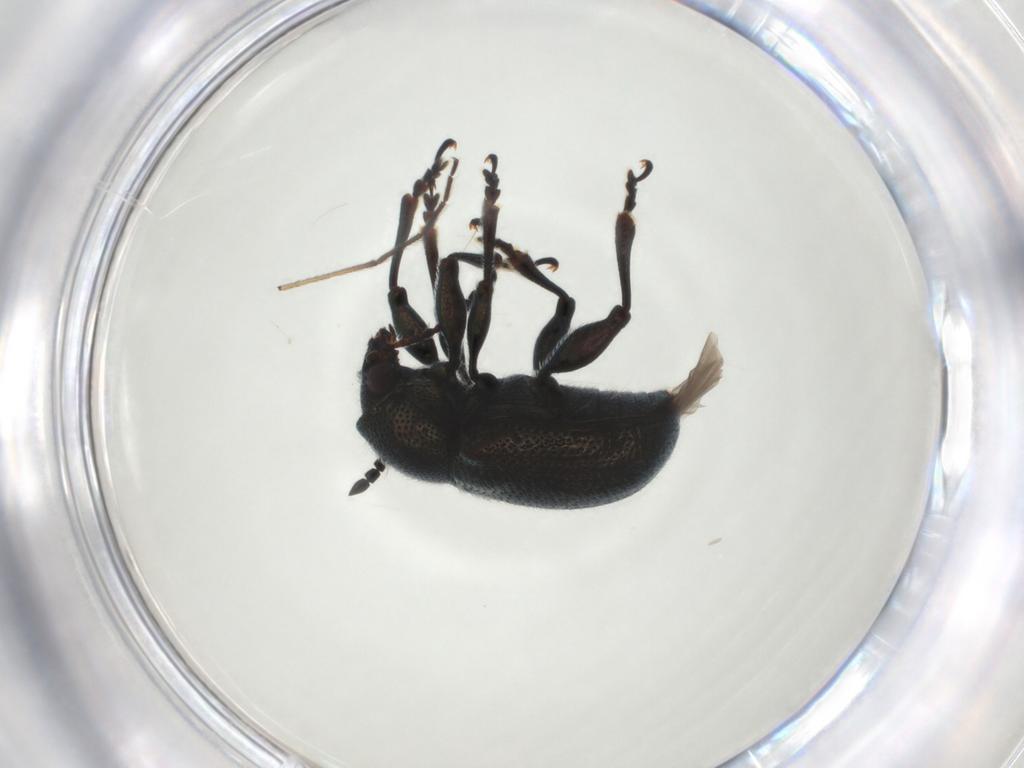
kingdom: Animalia
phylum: Arthropoda
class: Insecta
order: Coleoptera
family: Chrysomelidae
